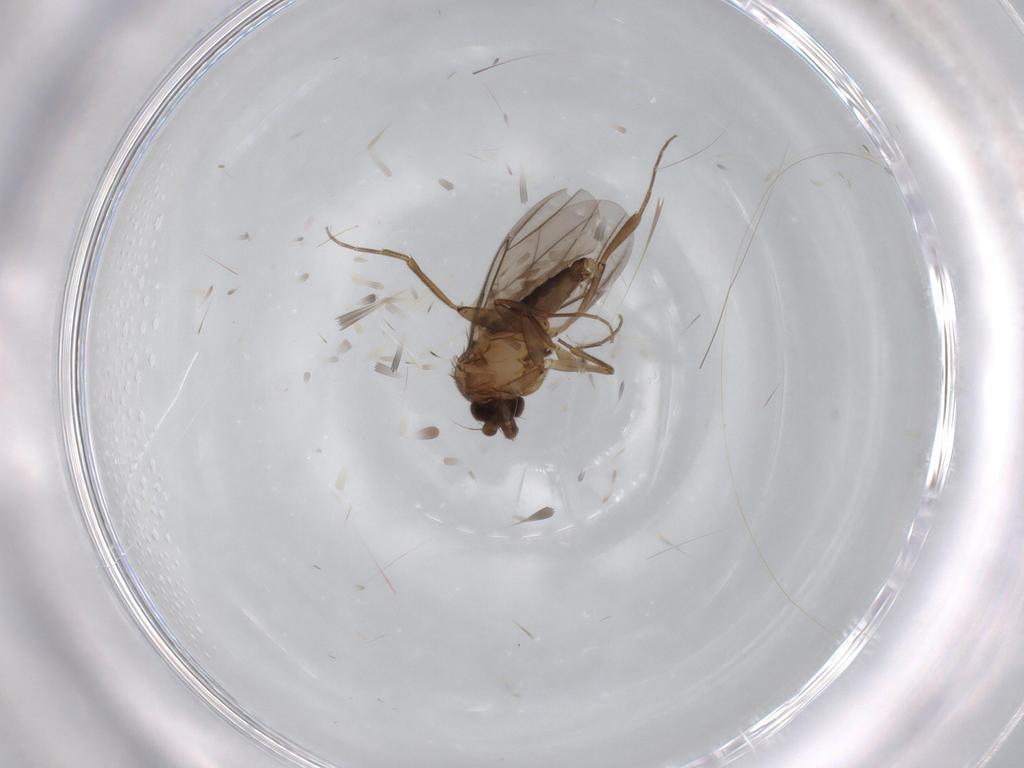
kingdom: Animalia
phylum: Arthropoda
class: Insecta
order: Diptera
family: Phoridae
